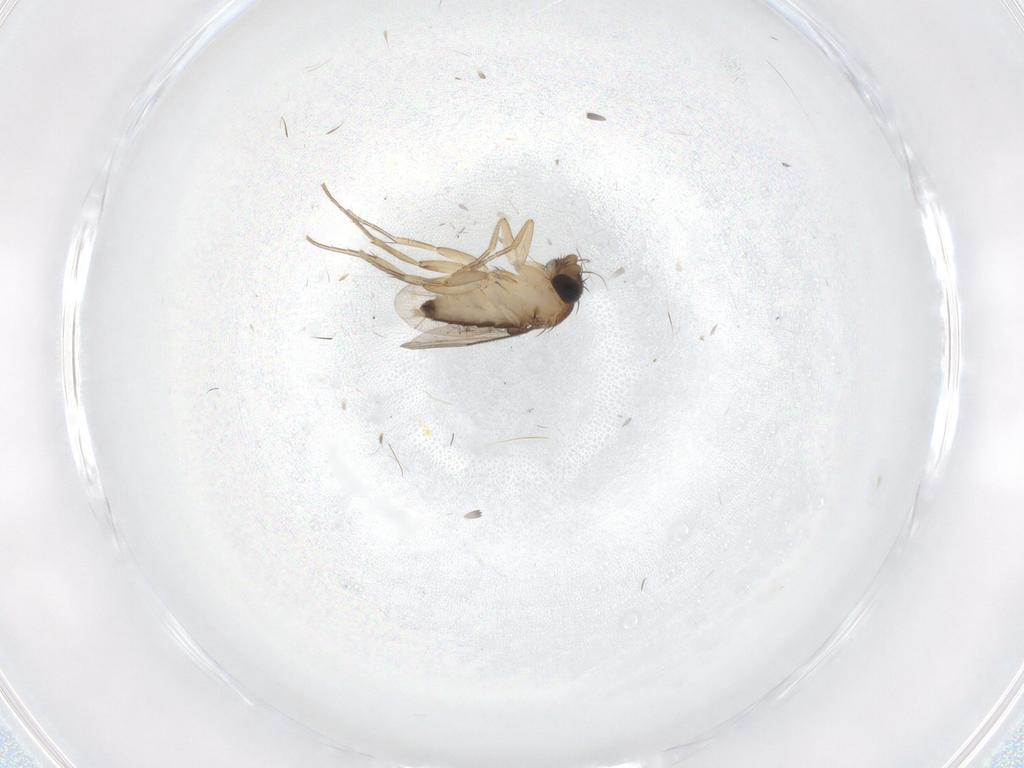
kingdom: Animalia
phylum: Arthropoda
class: Insecta
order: Diptera
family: Phoridae
